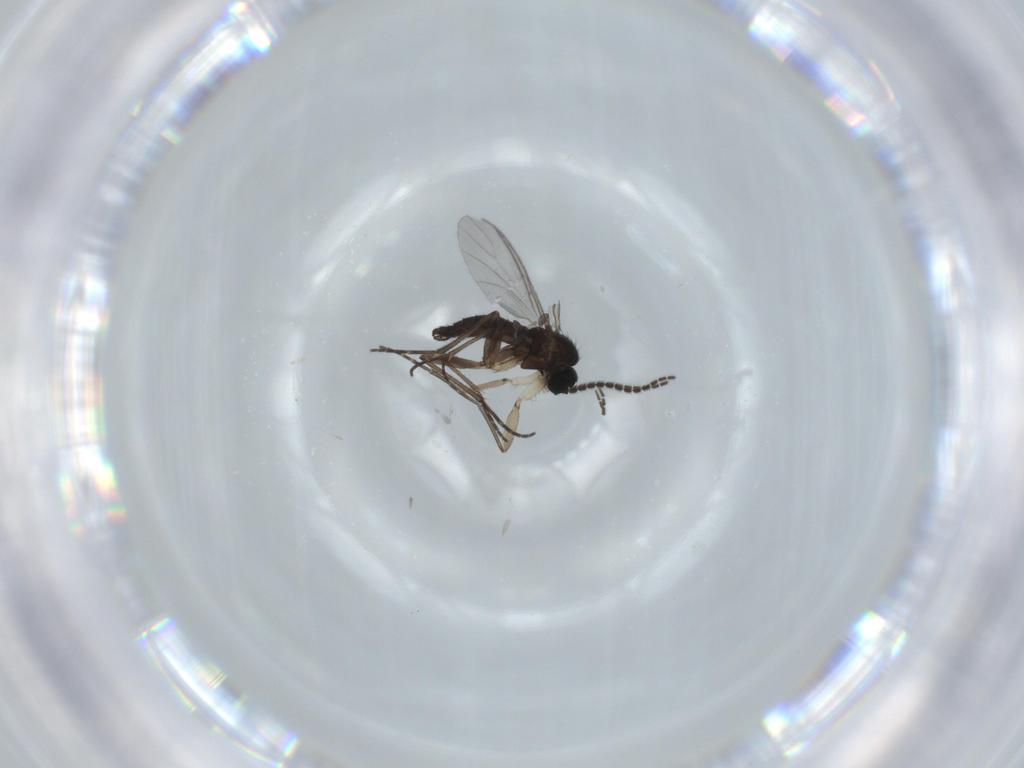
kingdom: Animalia
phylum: Arthropoda
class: Insecta
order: Diptera
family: Sciaridae
